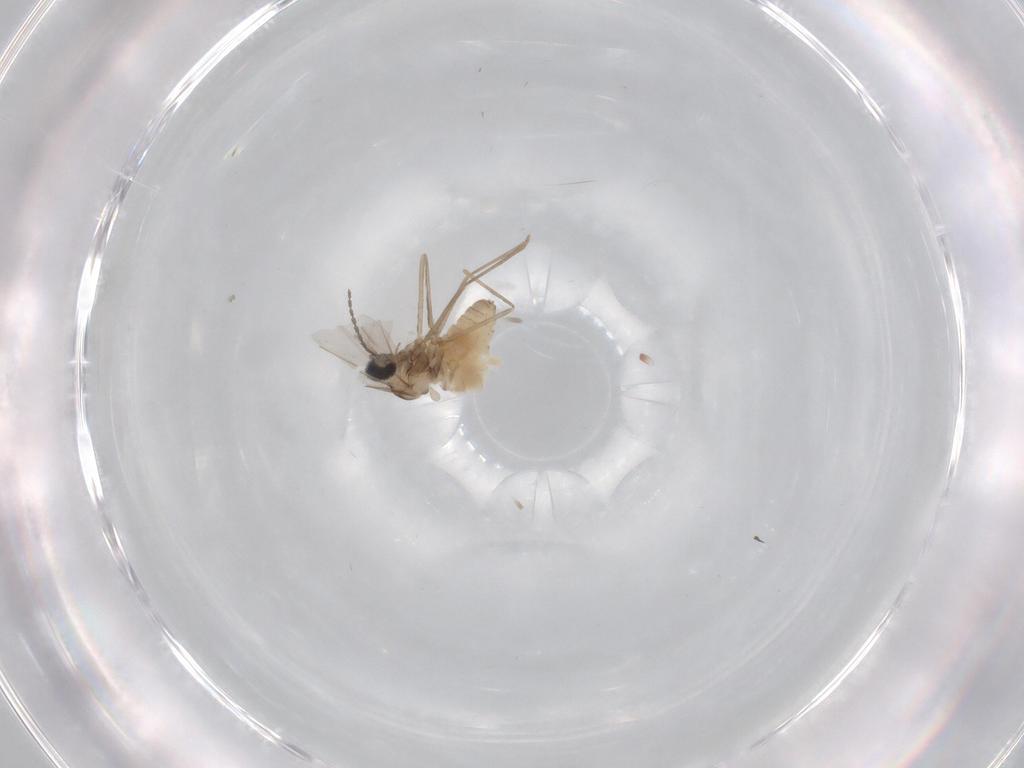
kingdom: Animalia
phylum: Arthropoda
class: Insecta
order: Diptera
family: Cecidomyiidae
